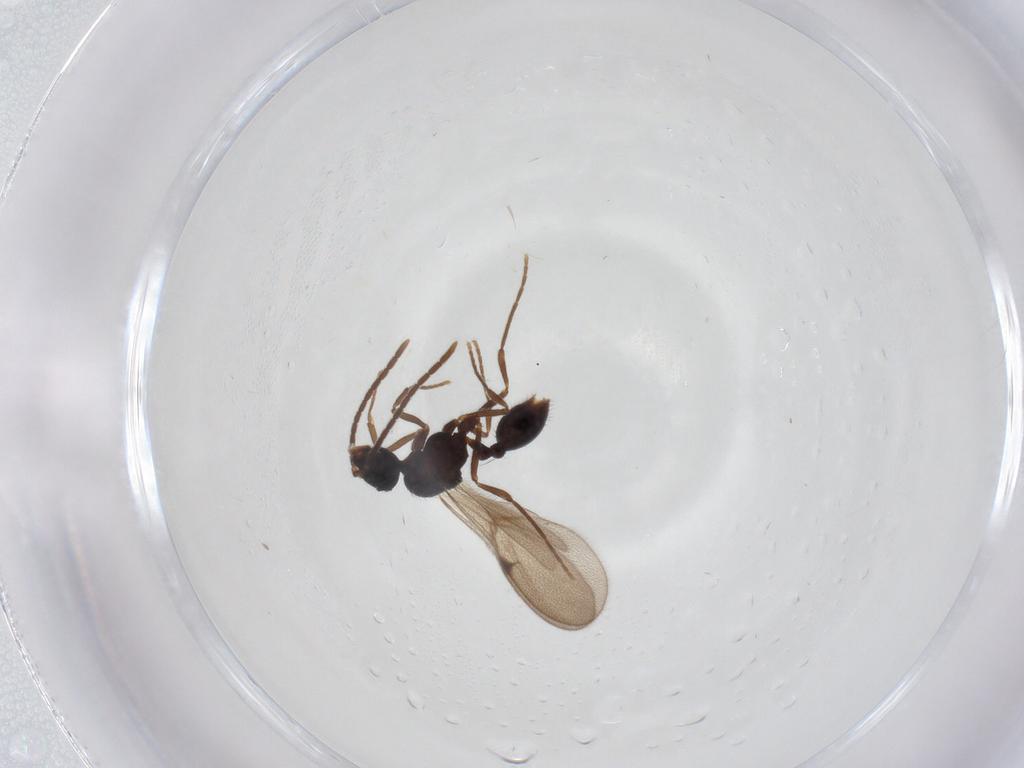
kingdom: Animalia
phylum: Arthropoda
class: Insecta
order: Hymenoptera
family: Formicidae
